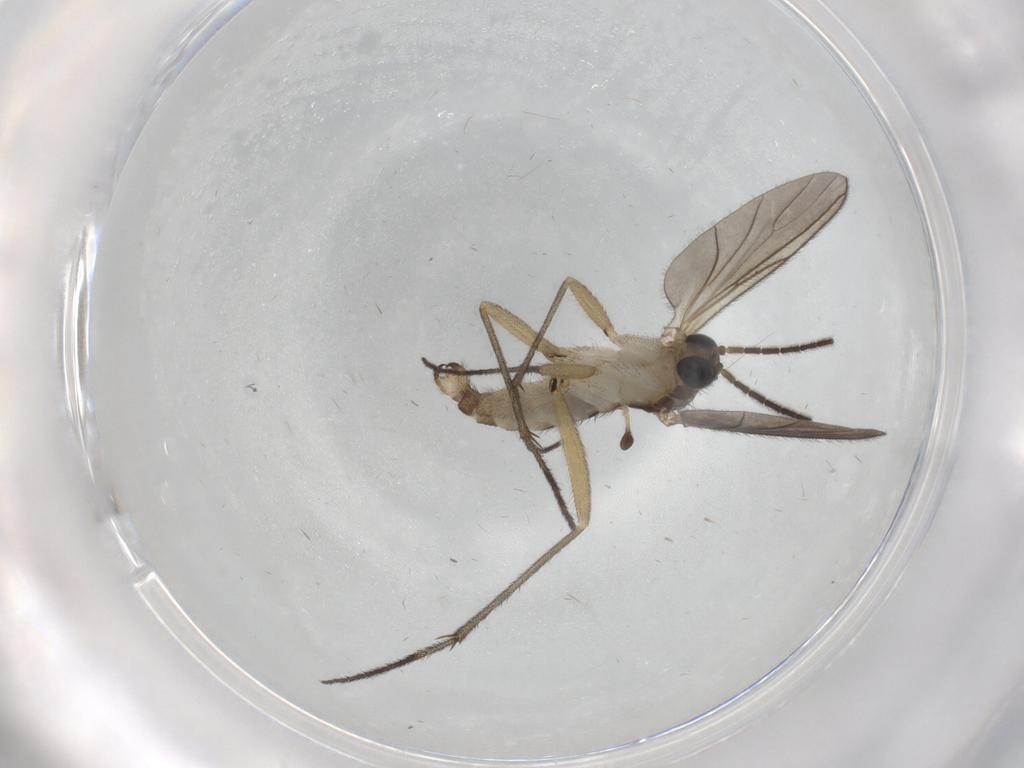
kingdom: Animalia
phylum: Arthropoda
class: Insecta
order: Diptera
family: Sciaridae
